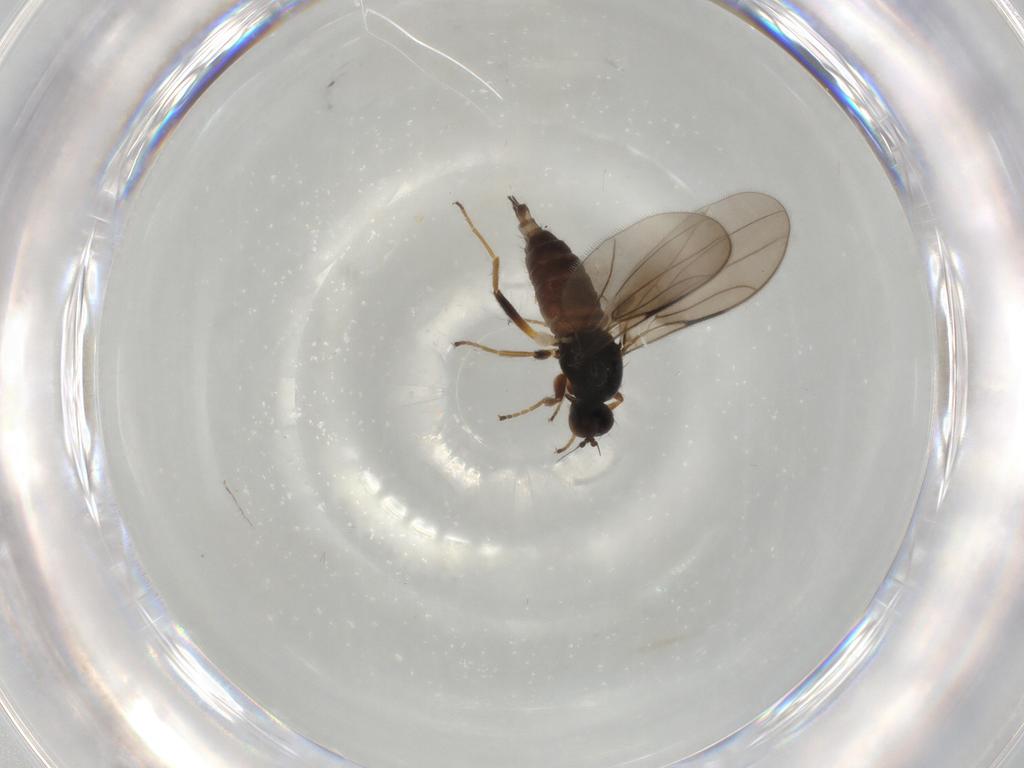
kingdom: Animalia
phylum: Arthropoda
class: Insecta
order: Diptera
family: Hybotidae
